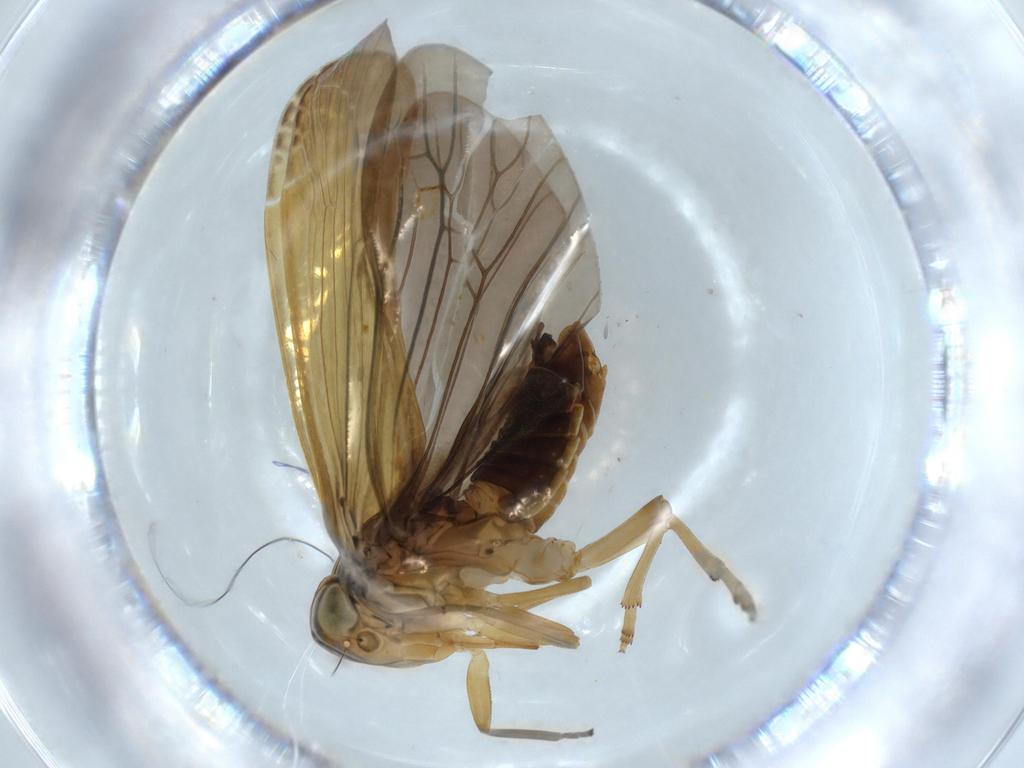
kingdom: Animalia
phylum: Arthropoda
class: Insecta
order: Hemiptera
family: Achilidae
